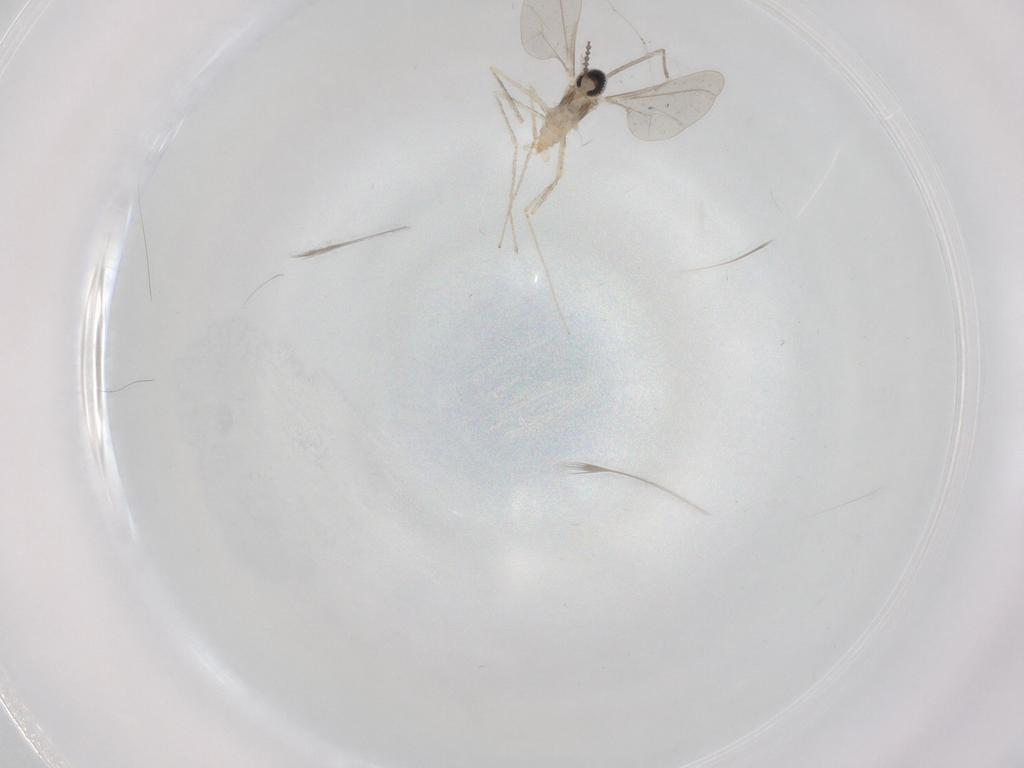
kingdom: Animalia
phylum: Arthropoda
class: Insecta
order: Diptera
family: Cecidomyiidae
